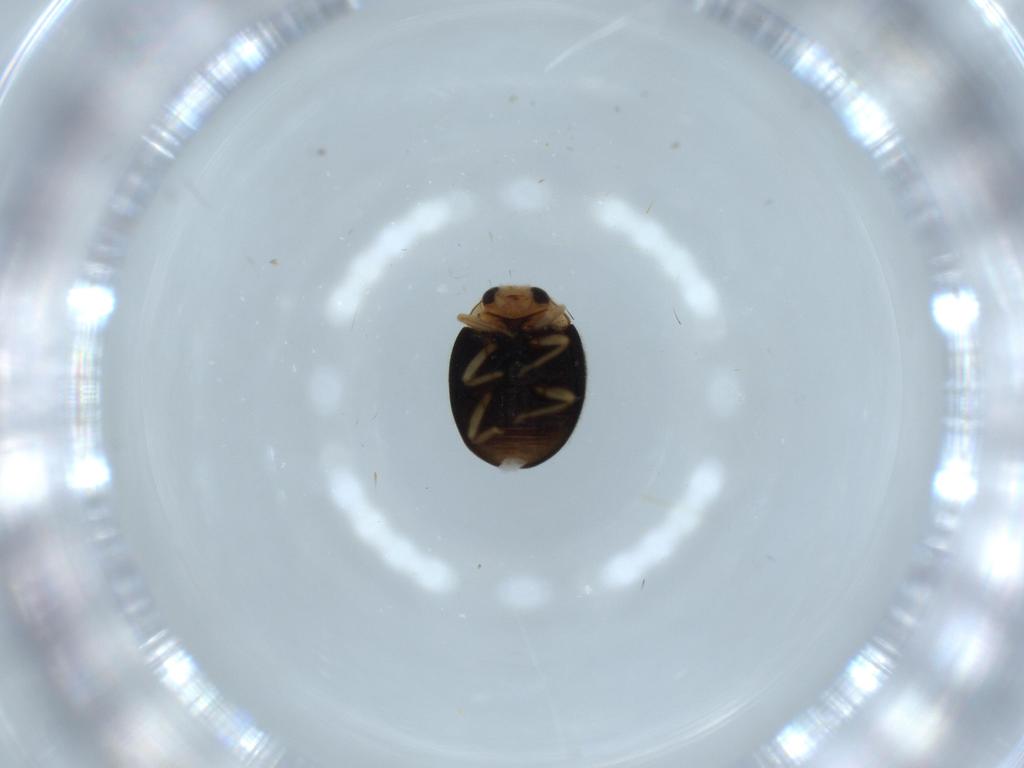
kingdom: Animalia
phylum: Arthropoda
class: Insecta
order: Coleoptera
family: Coccinellidae
